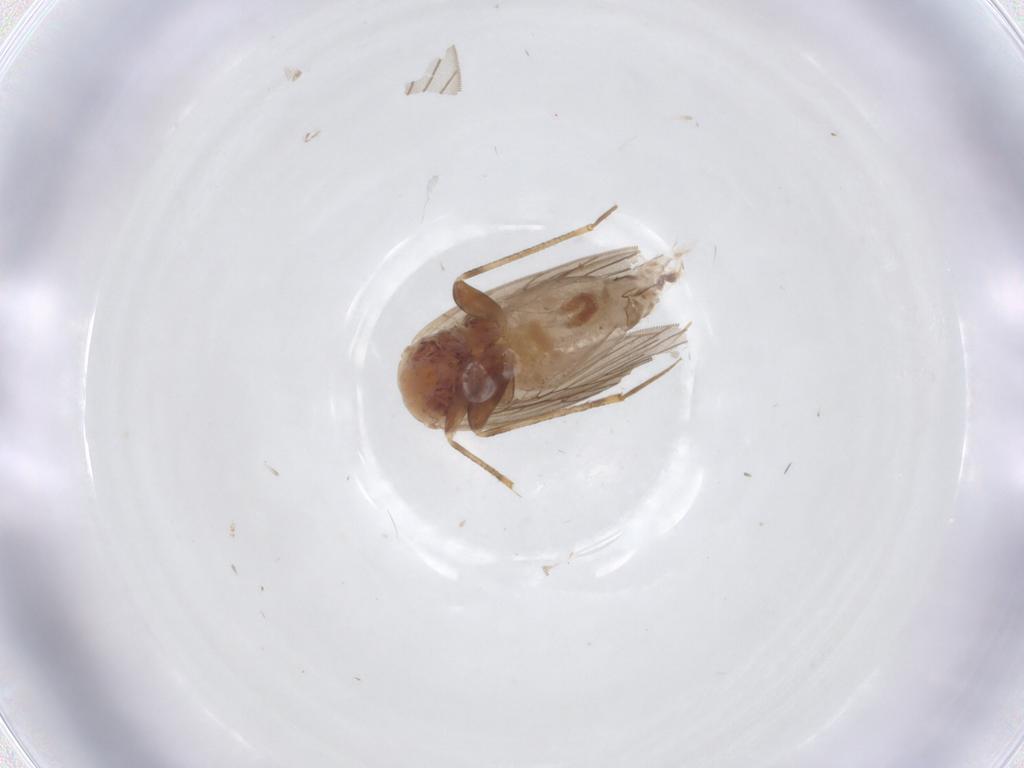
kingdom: Animalia
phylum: Arthropoda
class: Insecta
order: Psocodea
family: Lepidopsocidae
